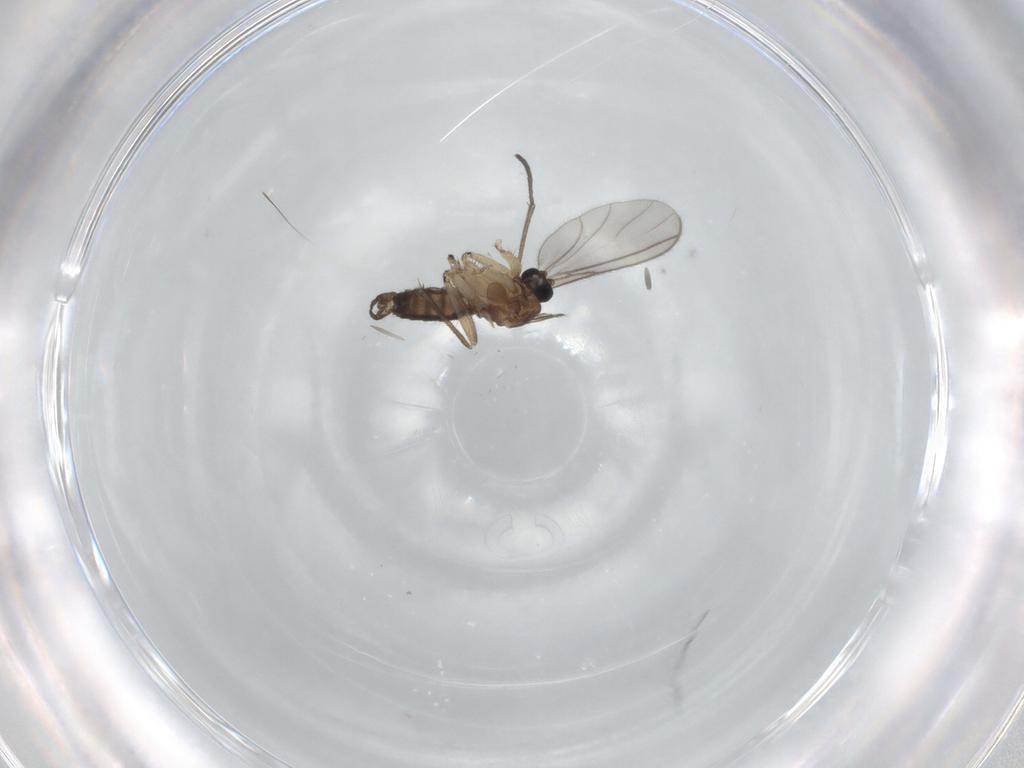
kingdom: Animalia
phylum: Arthropoda
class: Insecta
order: Diptera
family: Sciaridae
